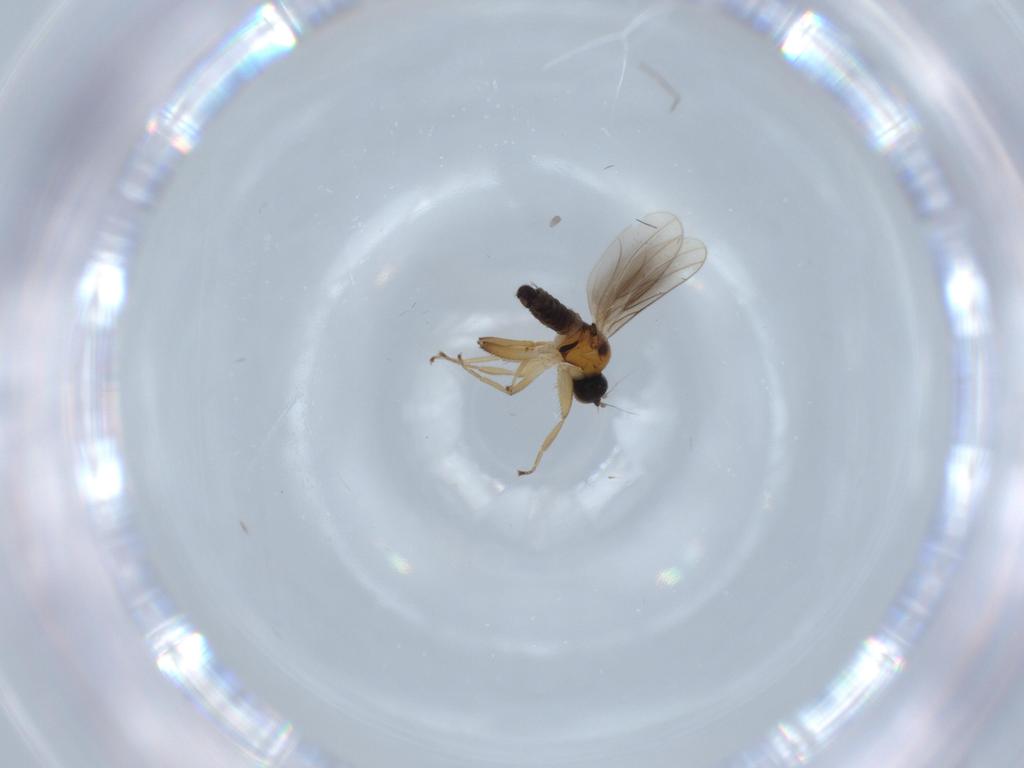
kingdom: Animalia
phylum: Arthropoda
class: Insecta
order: Diptera
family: Hybotidae
